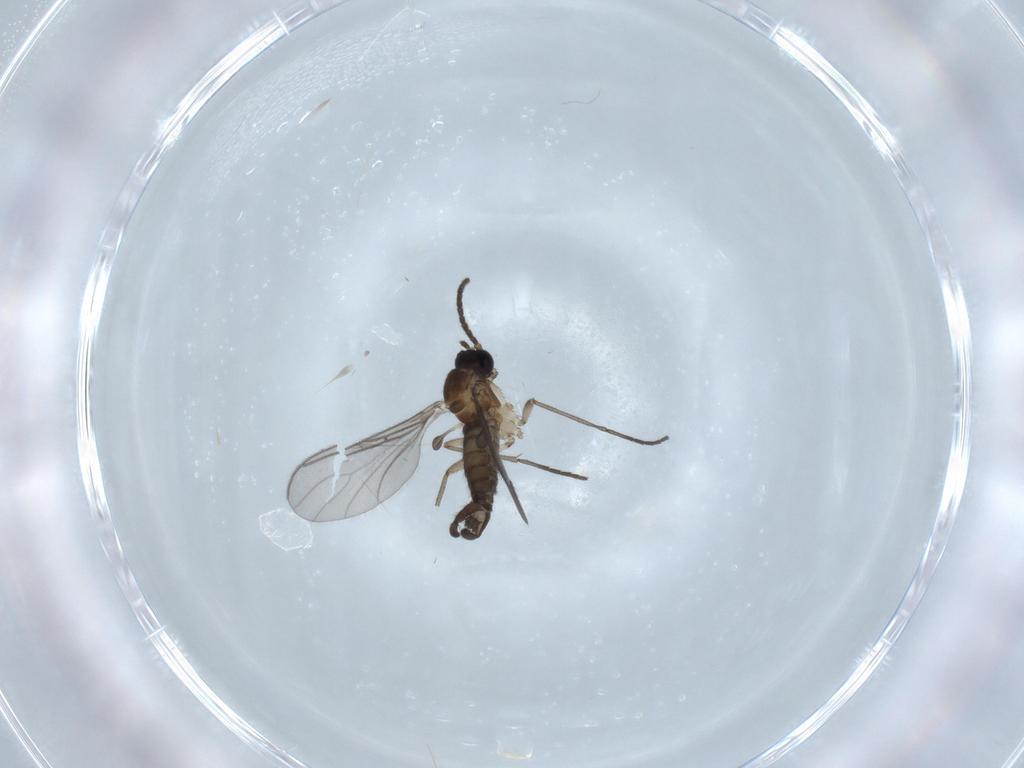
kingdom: Animalia
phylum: Arthropoda
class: Insecta
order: Diptera
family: Sciaridae
